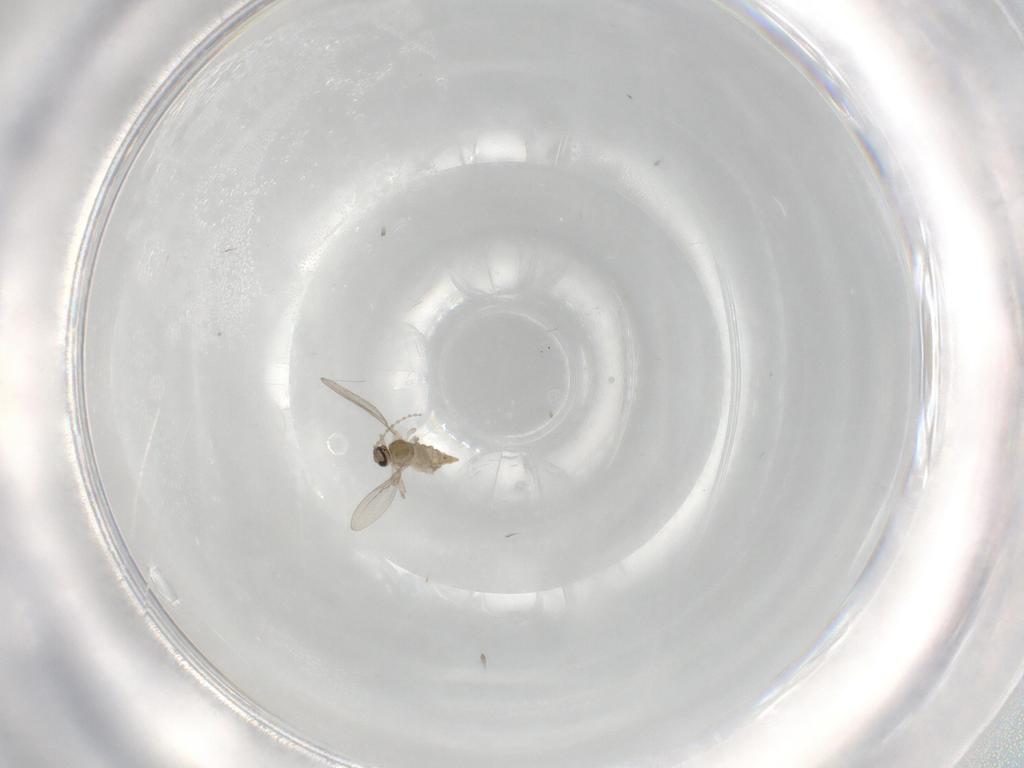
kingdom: Animalia
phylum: Arthropoda
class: Insecta
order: Diptera
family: Cecidomyiidae
